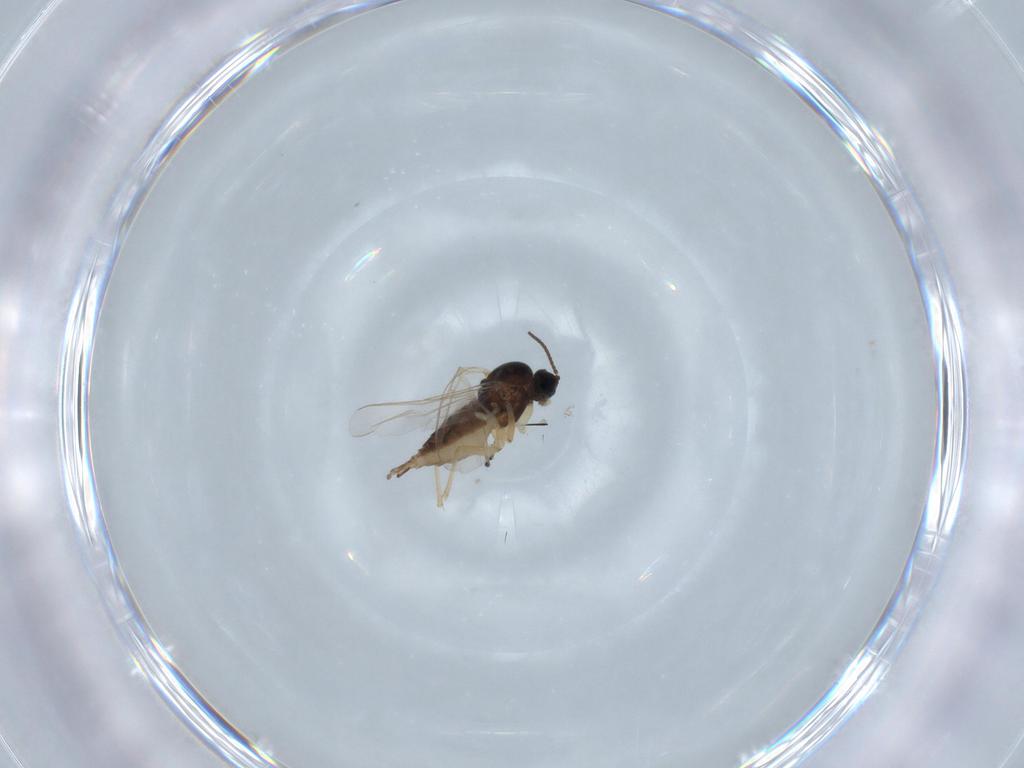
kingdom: Animalia
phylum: Arthropoda
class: Insecta
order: Diptera
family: Sciaridae
